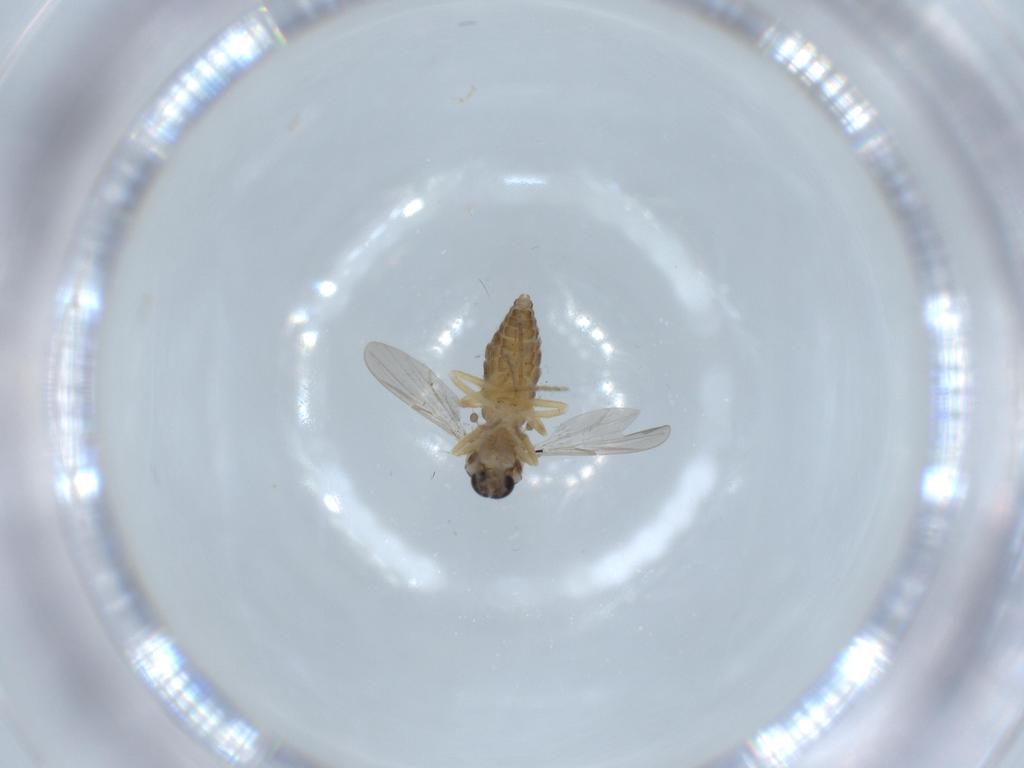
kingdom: Animalia
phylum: Arthropoda
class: Insecta
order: Diptera
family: Ceratopogonidae
